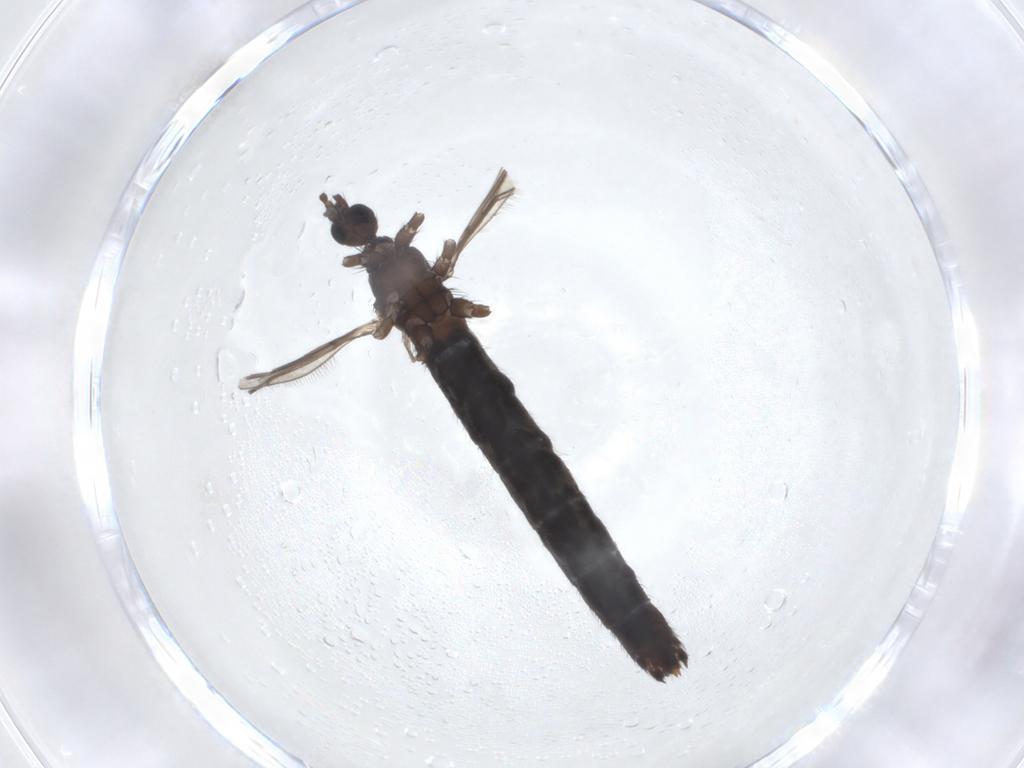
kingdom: Animalia
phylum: Arthropoda
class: Insecta
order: Diptera
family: Limoniidae
